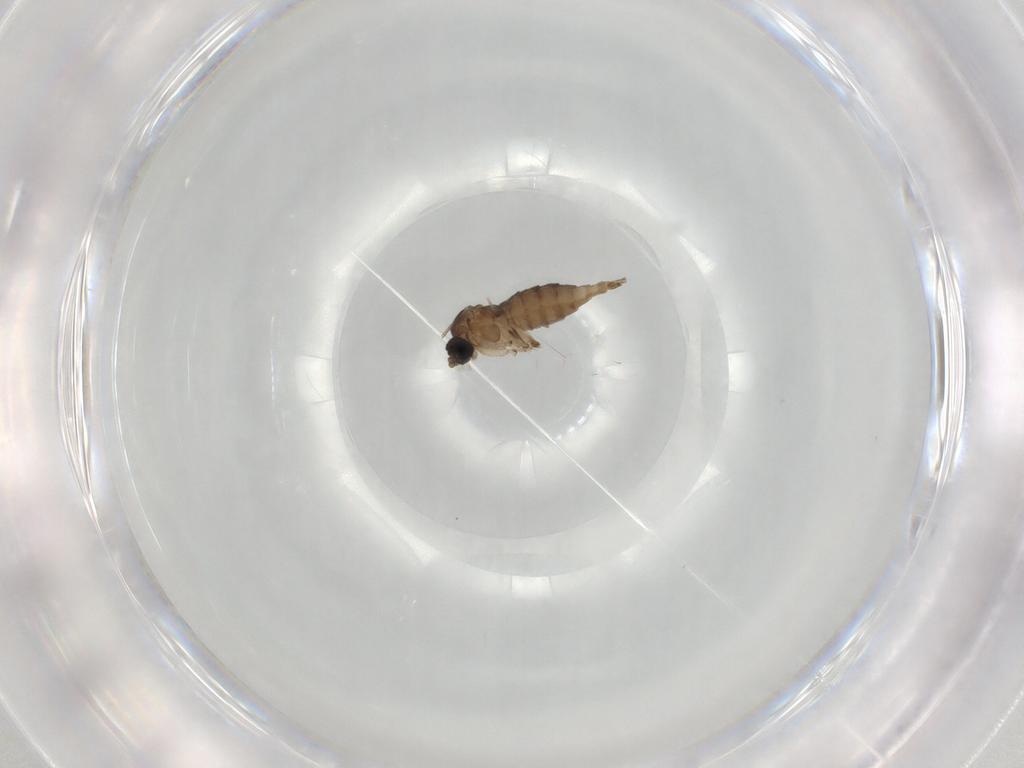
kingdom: Animalia
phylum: Arthropoda
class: Insecta
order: Diptera
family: Sciaridae
